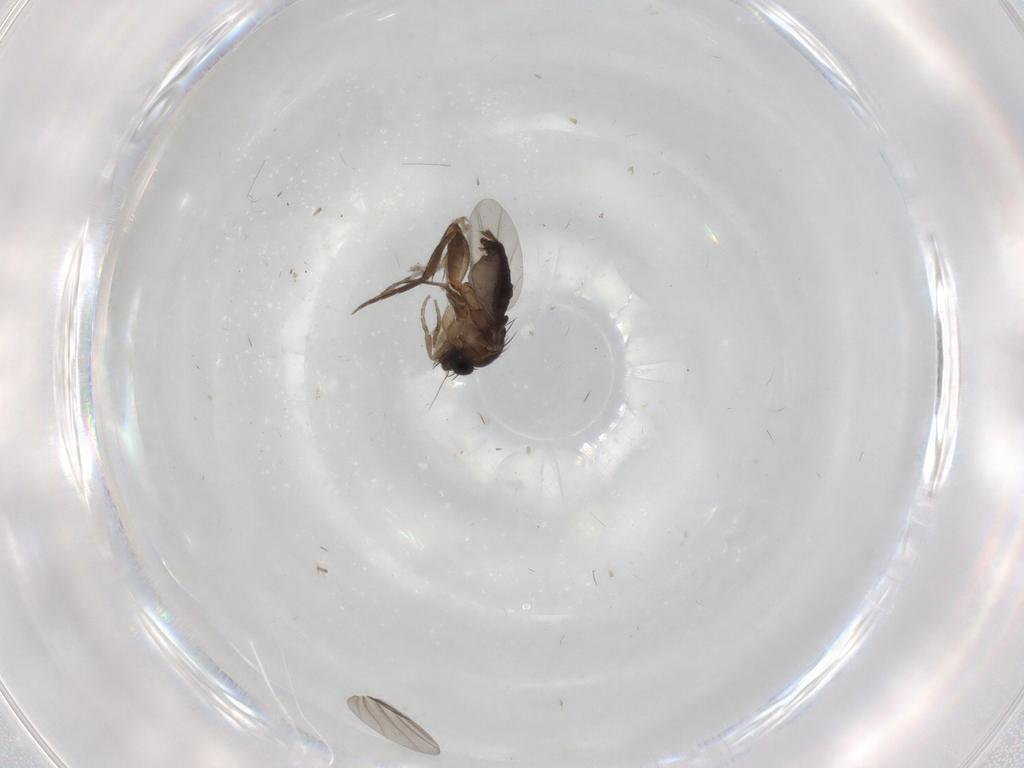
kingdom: Animalia
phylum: Arthropoda
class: Insecta
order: Diptera
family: Phoridae
